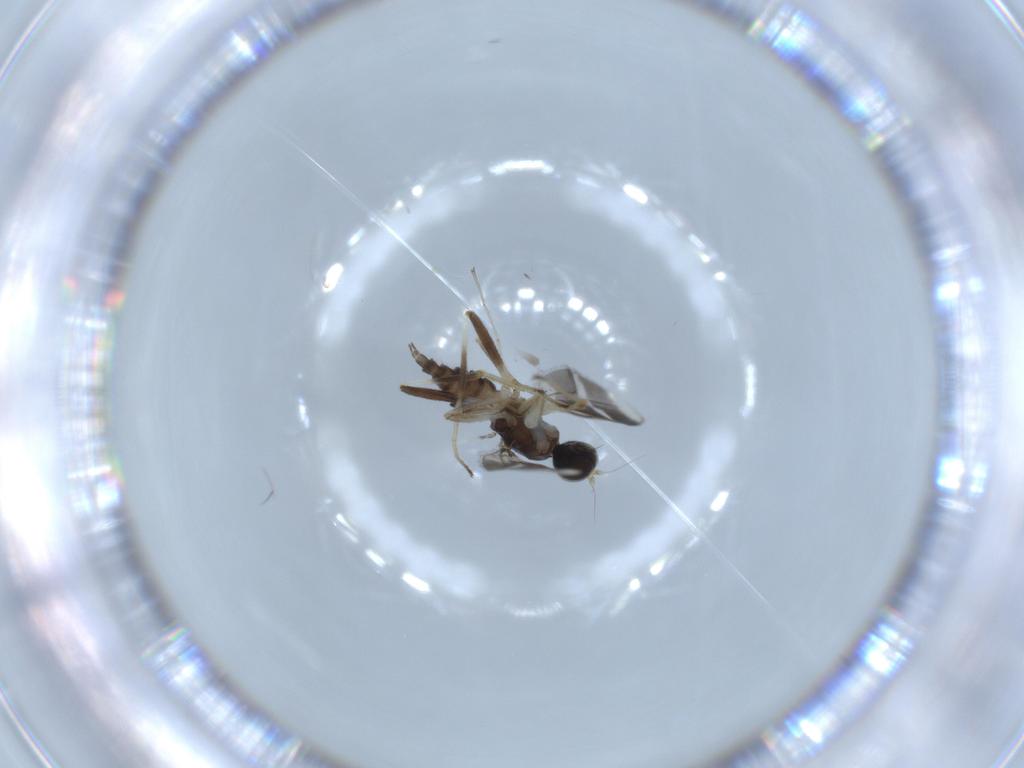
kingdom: Animalia
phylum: Arthropoda
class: Insecta
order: Diptera
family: Hybotidae
